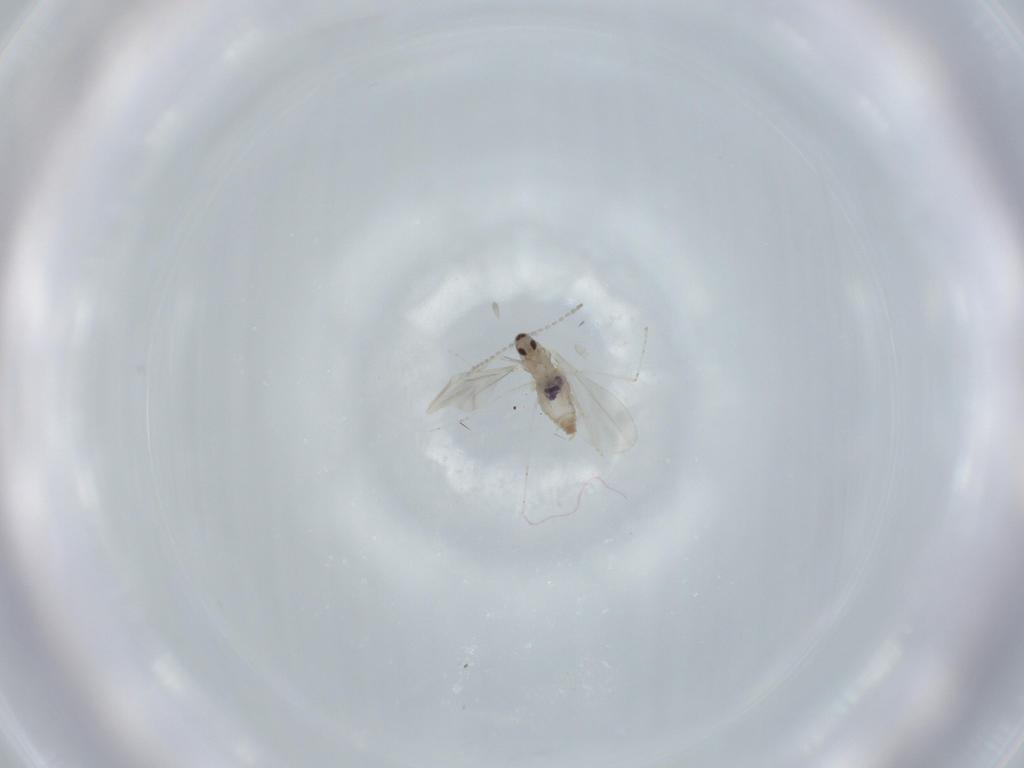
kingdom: Animalia
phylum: Arthropoda
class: Insecta
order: Diptera
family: Cecidomyiidae
